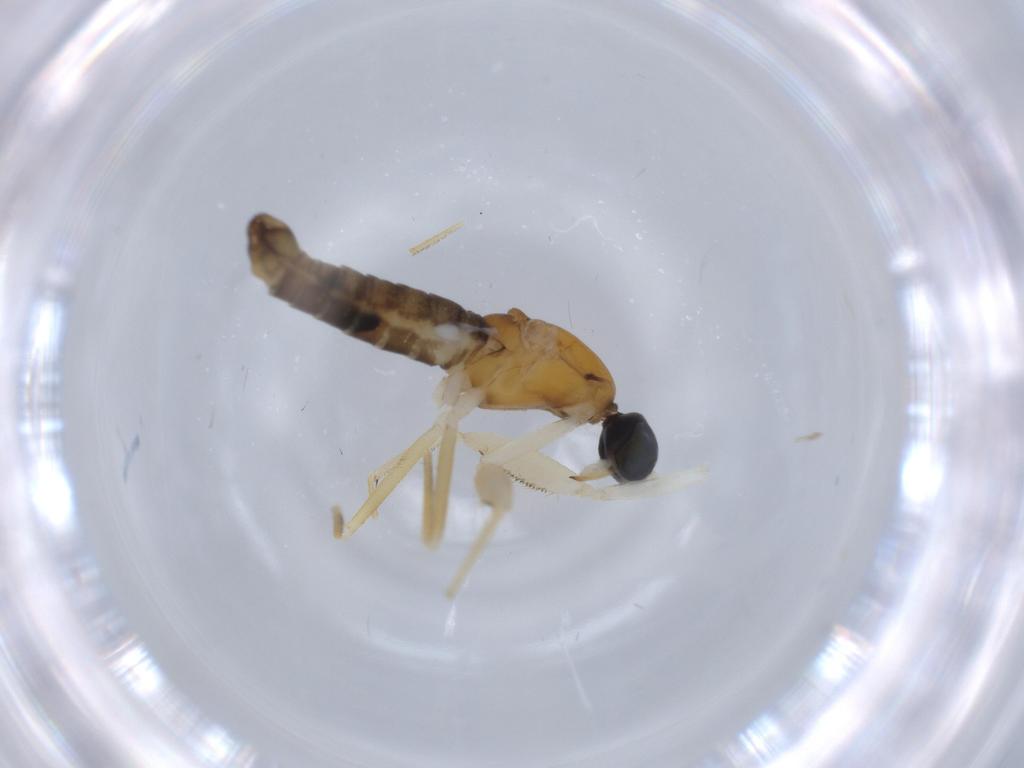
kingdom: Animalia
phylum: Arthropoda
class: Insecta
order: Diptera
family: Empididae
